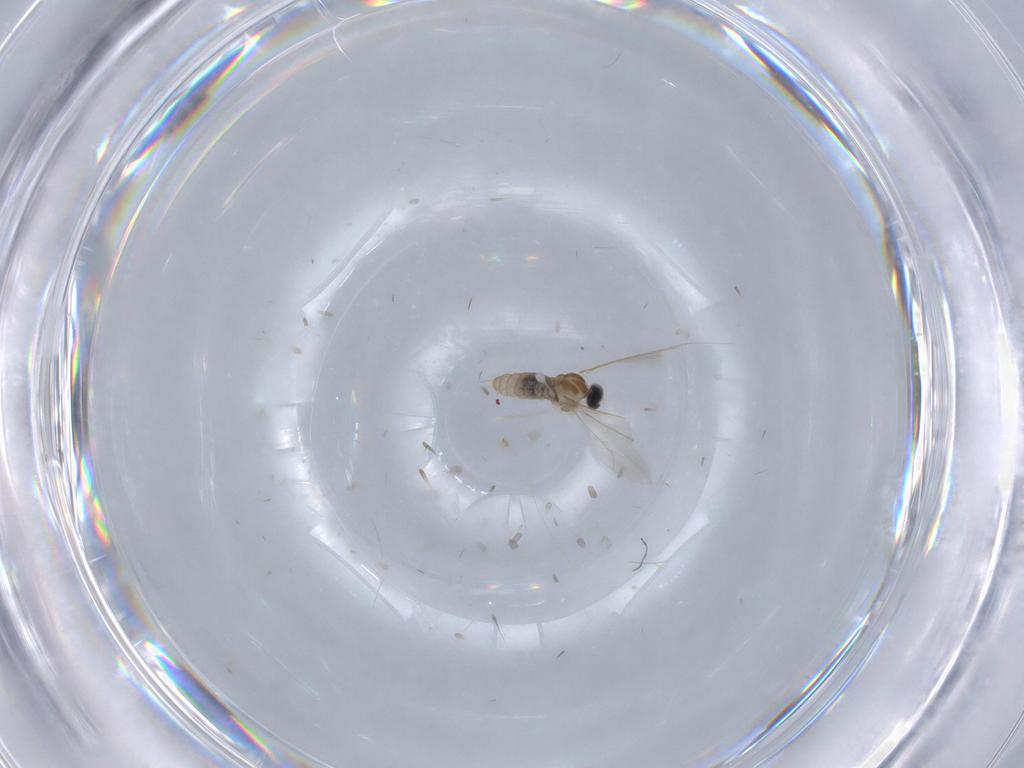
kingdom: Animalia
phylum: Arthropoda
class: Insecta
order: Diptera
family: Cecidomyiidae
